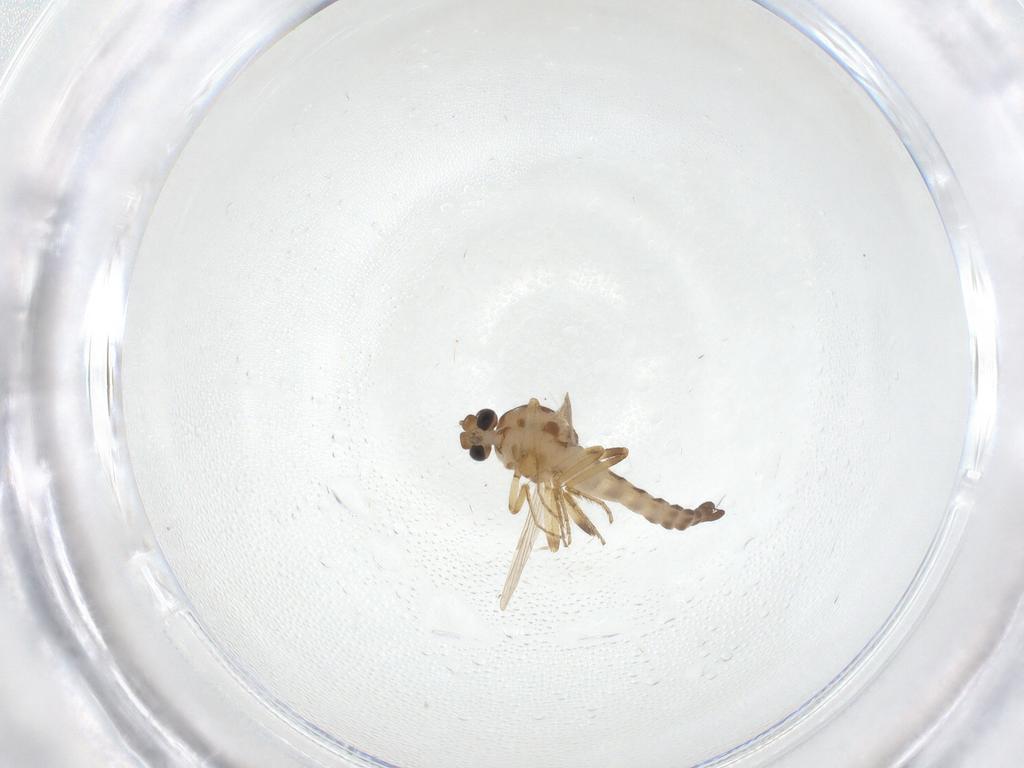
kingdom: Animalia
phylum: Arthropoda
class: Insecta
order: Diptera
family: Ceratopogonidae
